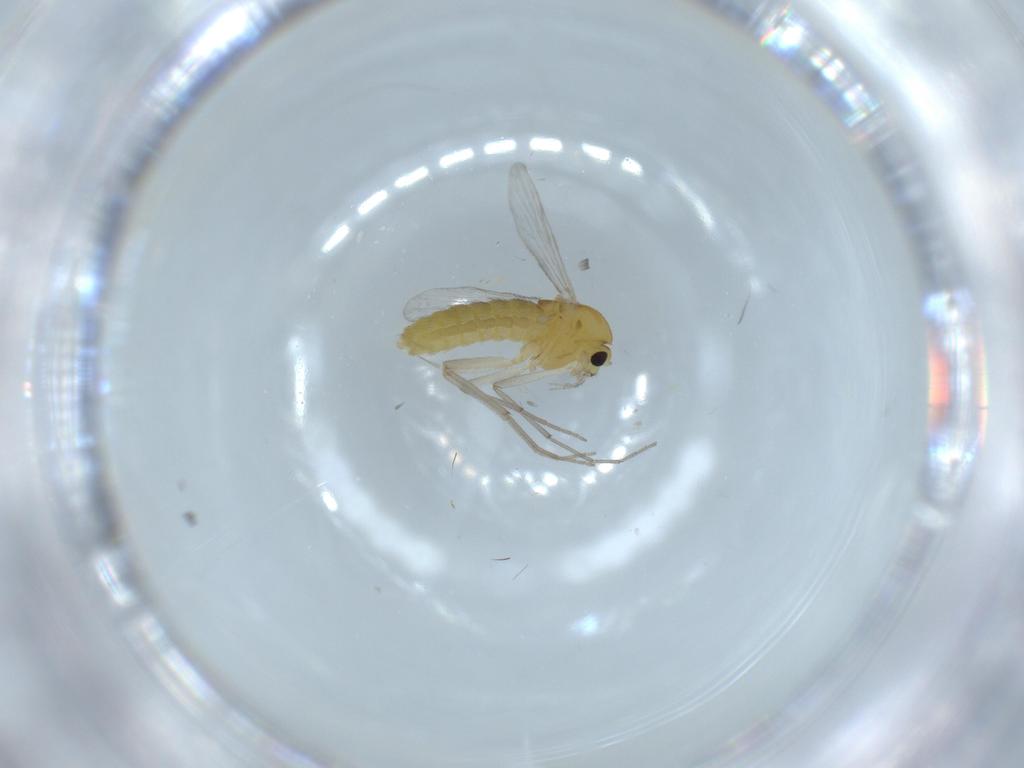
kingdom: Animalia
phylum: Arthropoda
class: Insecta
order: Diptera
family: Chironomidae
